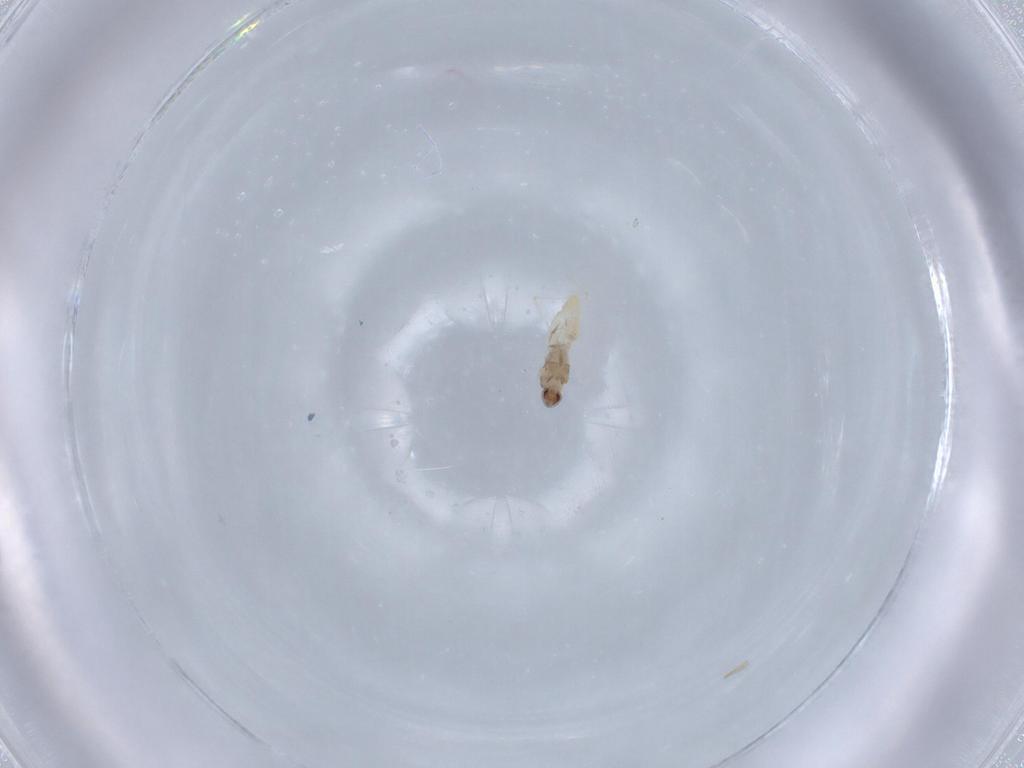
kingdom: Animalia
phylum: Arthropoda
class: Insecta
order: Diptera
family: Cecidomyiidae
